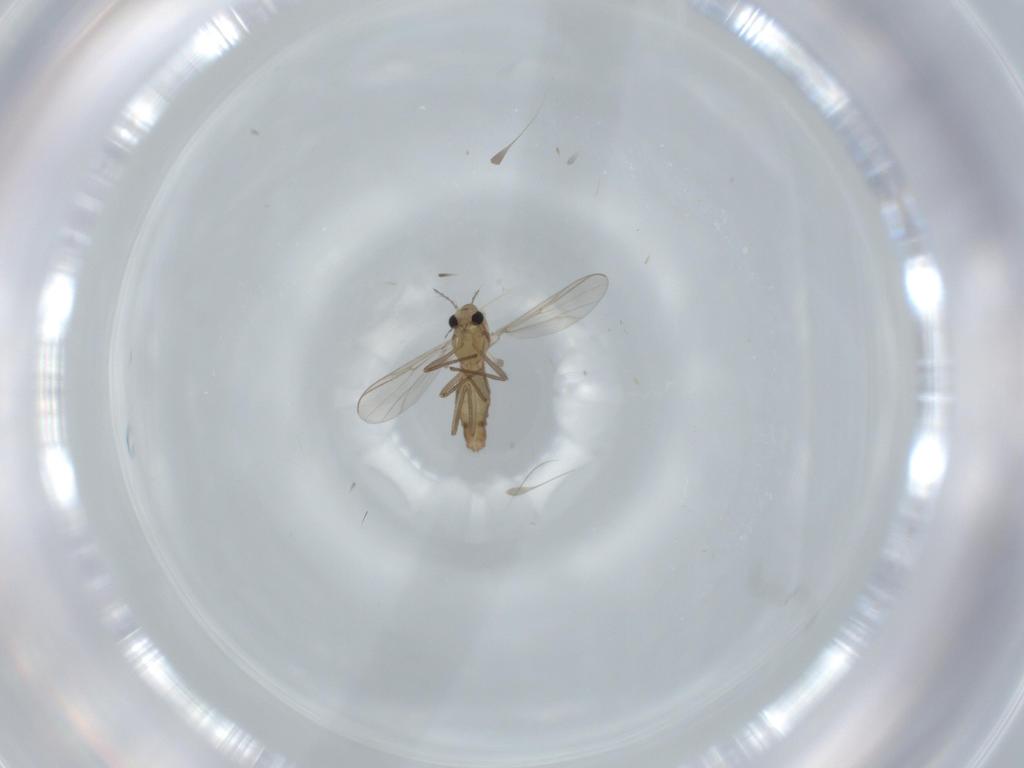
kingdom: Animalia
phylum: Arthropoda
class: Insecta
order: Diptera
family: Chironomidae
